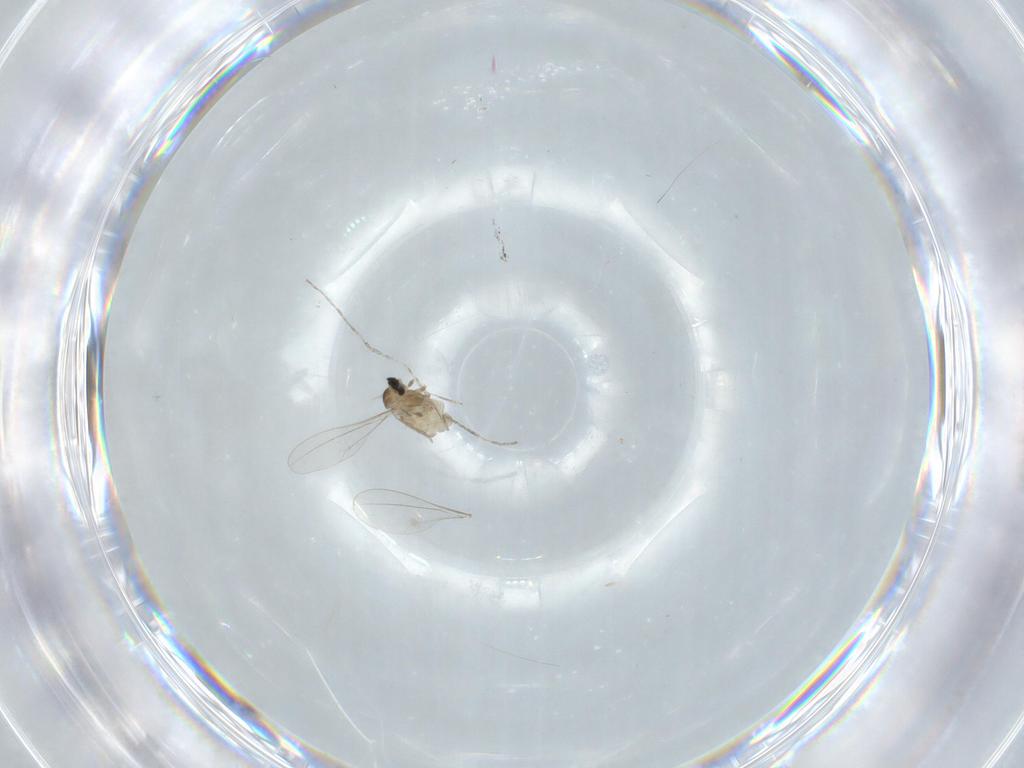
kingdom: Animalia
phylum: Arthropoda
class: Insecta
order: Diptera
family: Cecidomyiidae
